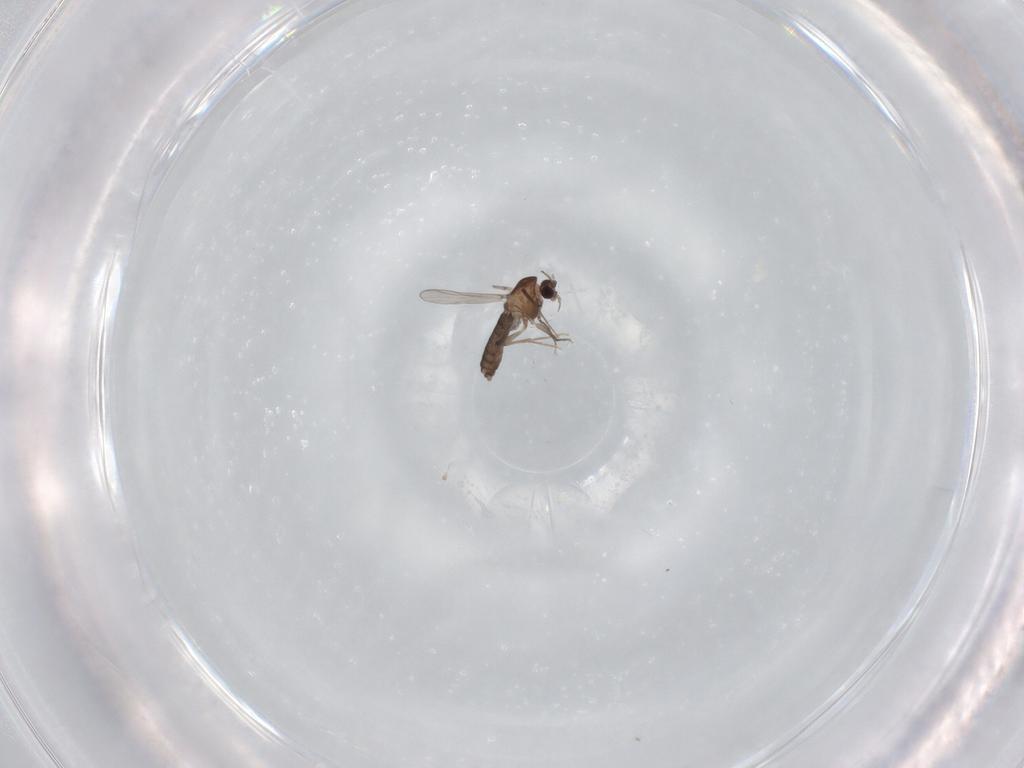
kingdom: Animalia
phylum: Arthropoda
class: Insecta
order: Diptera
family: Chironomidae
